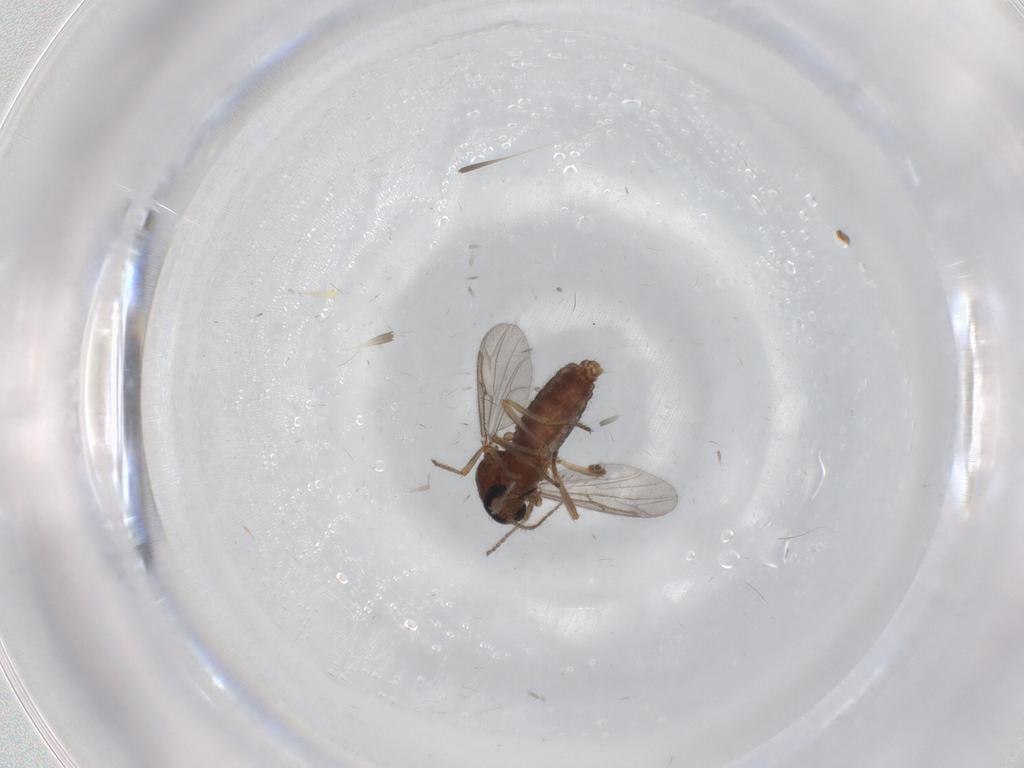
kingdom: Animalia
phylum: Arthropoda
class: Insecta
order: Diptera
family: Ceratopogonidae
